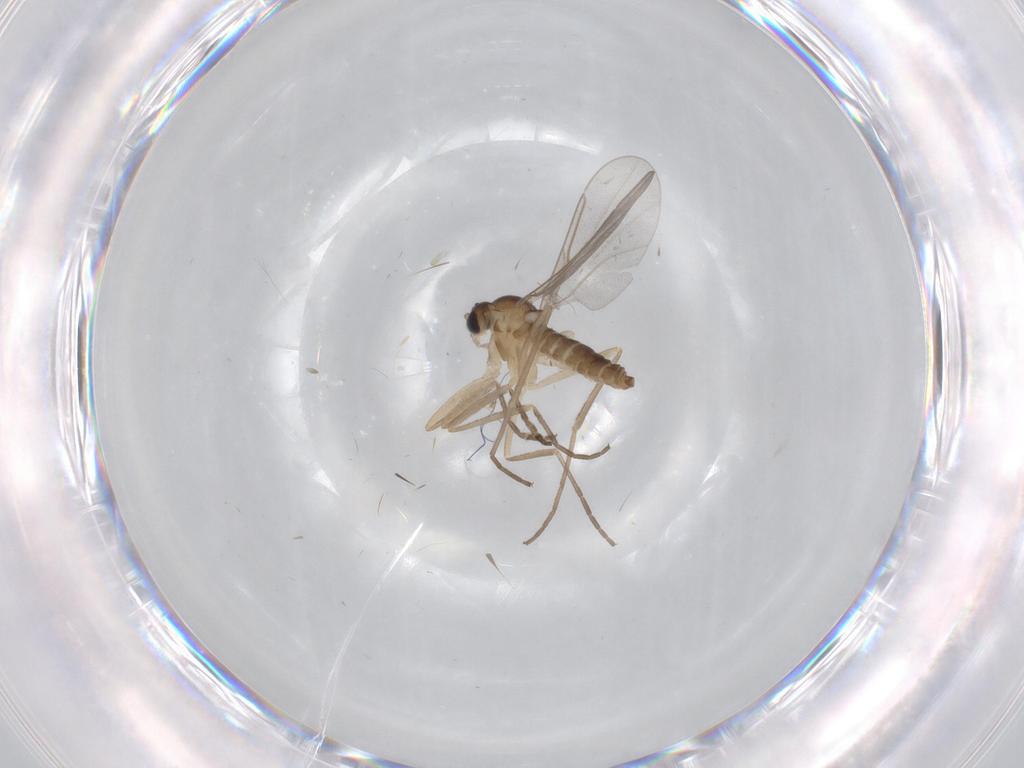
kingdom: Animalia
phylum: Arthropoda
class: Insecta
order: Diptera
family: Cecidomyiidae
